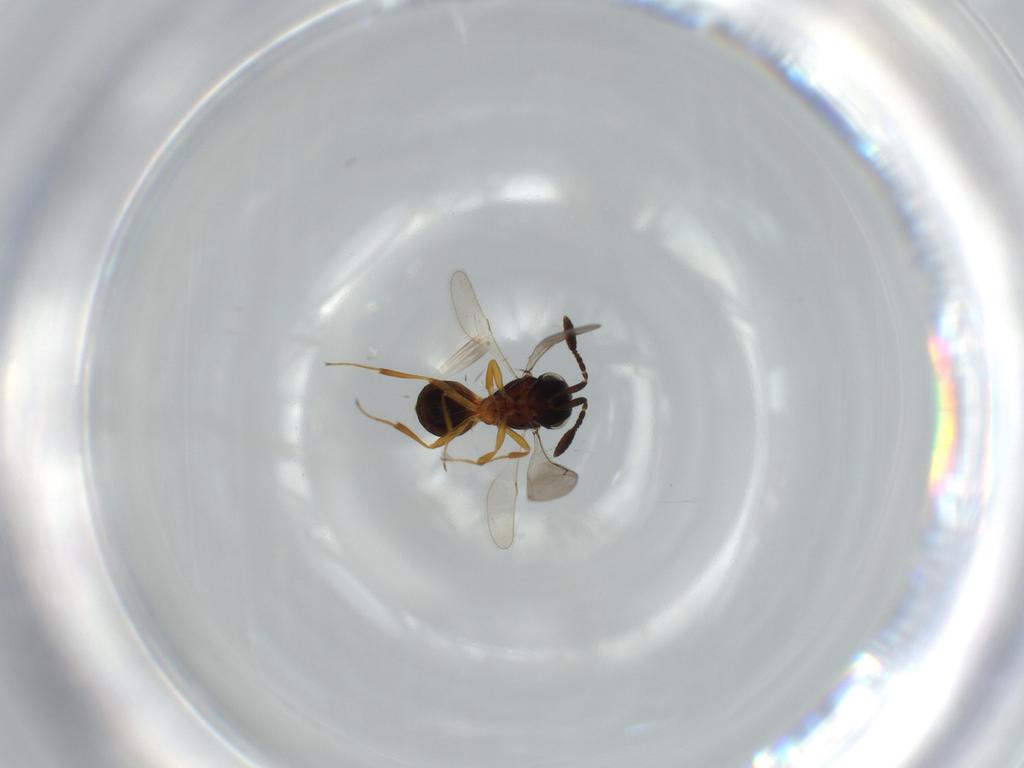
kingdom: Animalia
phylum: Arthropoda
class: Insecta
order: Hymenoptera
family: Scelionidae
